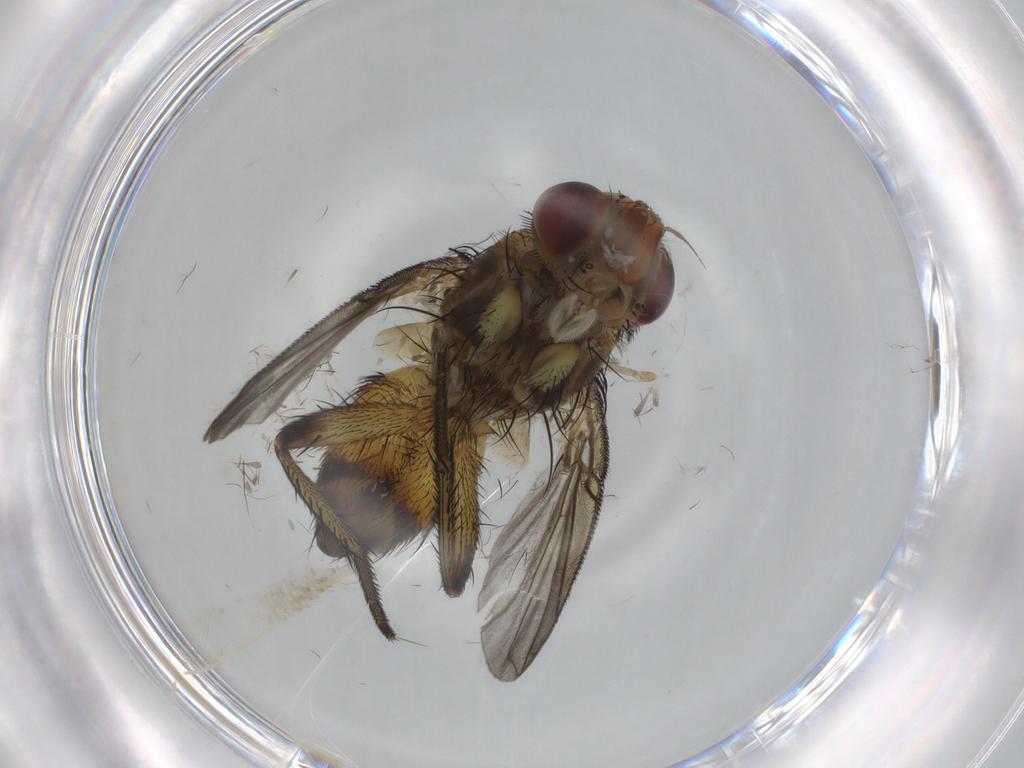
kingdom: Animalia
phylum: Arthropoda
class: Insecta
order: Diptera
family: Tachinidae
